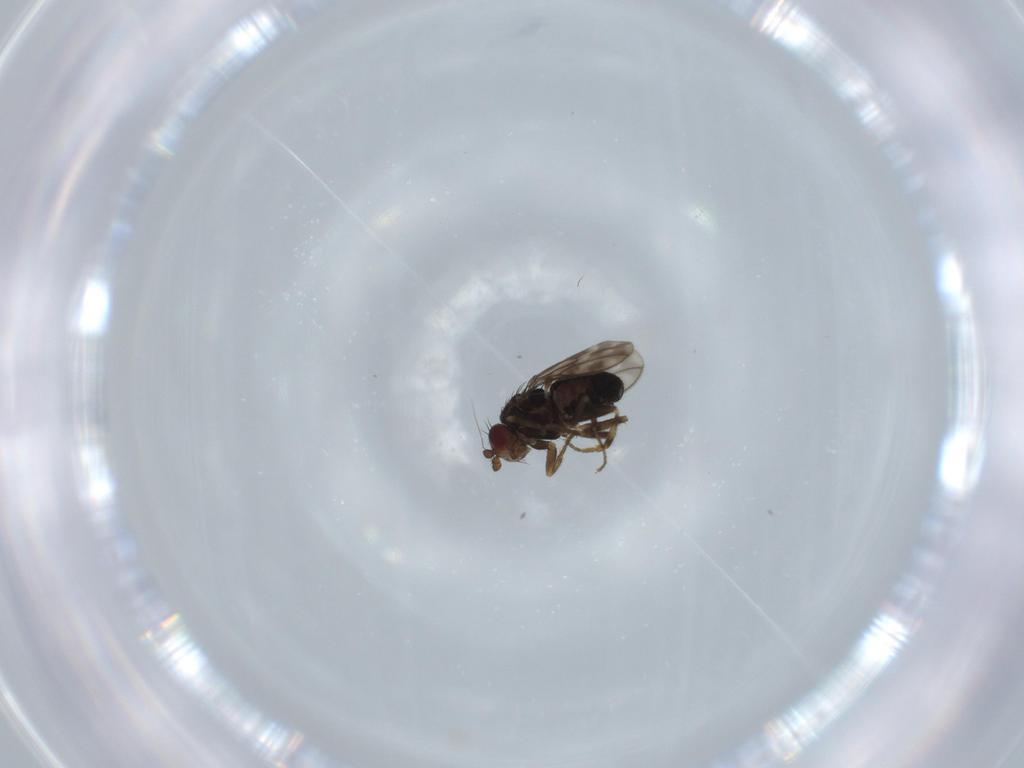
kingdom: Animalia
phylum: Arthropoda
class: Insecta
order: Diptera
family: Sphaeroceridae
